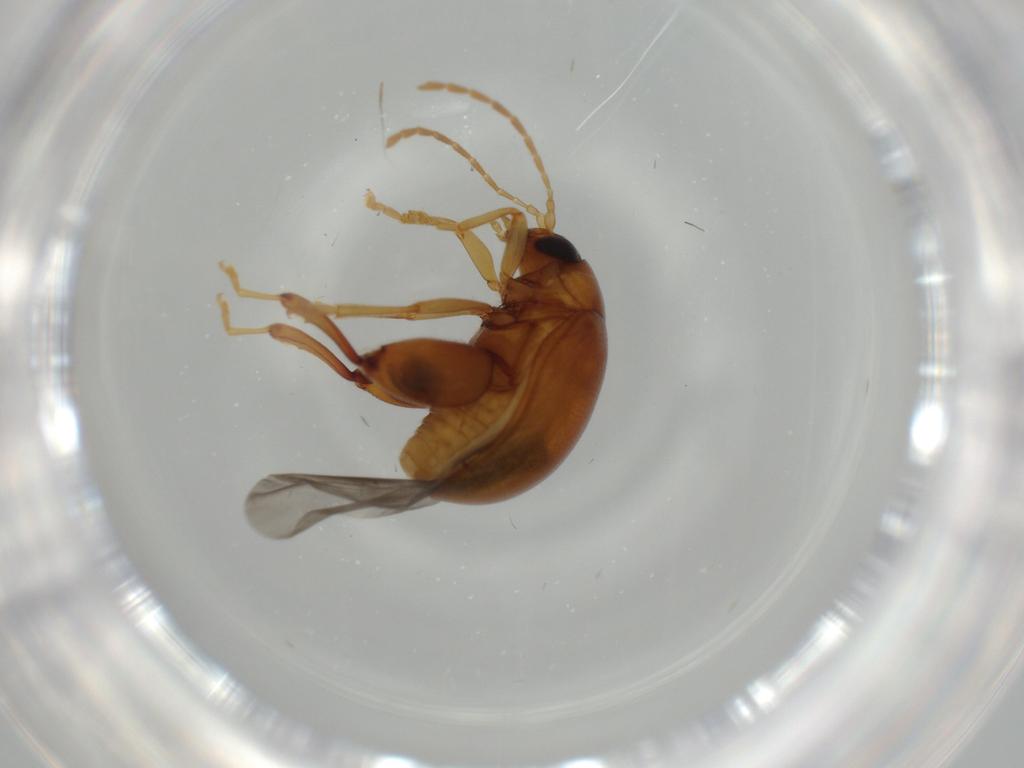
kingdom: Animalia
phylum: Arthropoda
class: Insecta
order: Coleoptera
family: Chrysomelidae
